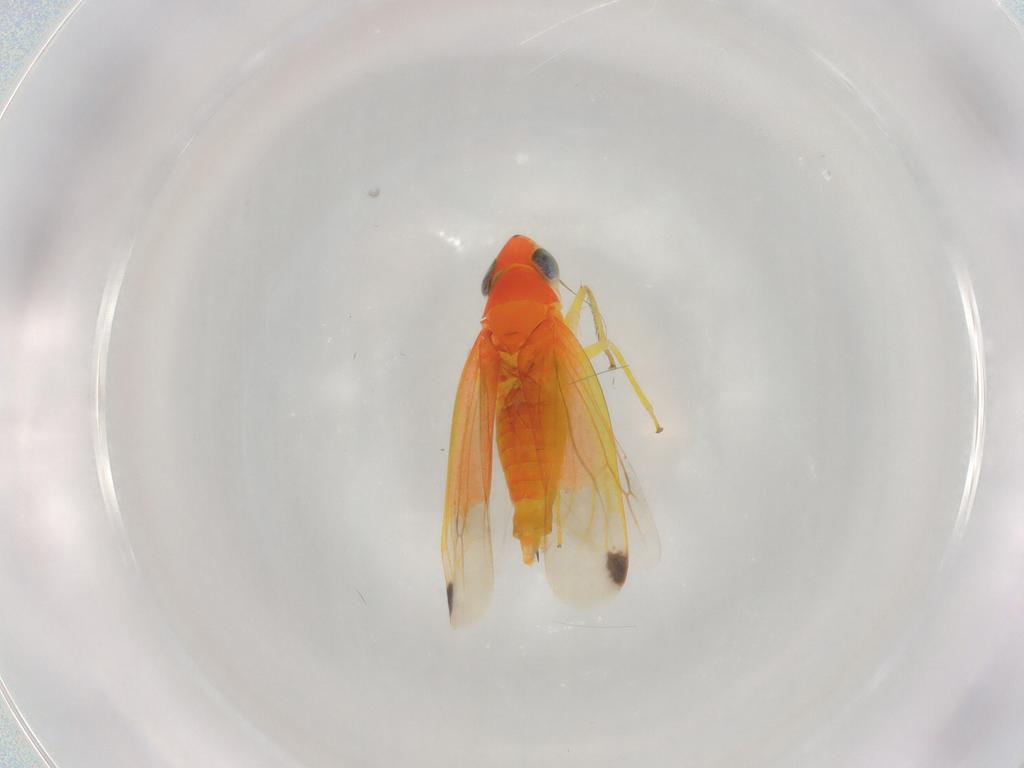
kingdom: Animalia
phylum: Arthropoda
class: Insecta
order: Hemiptera
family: Cicadellidae
